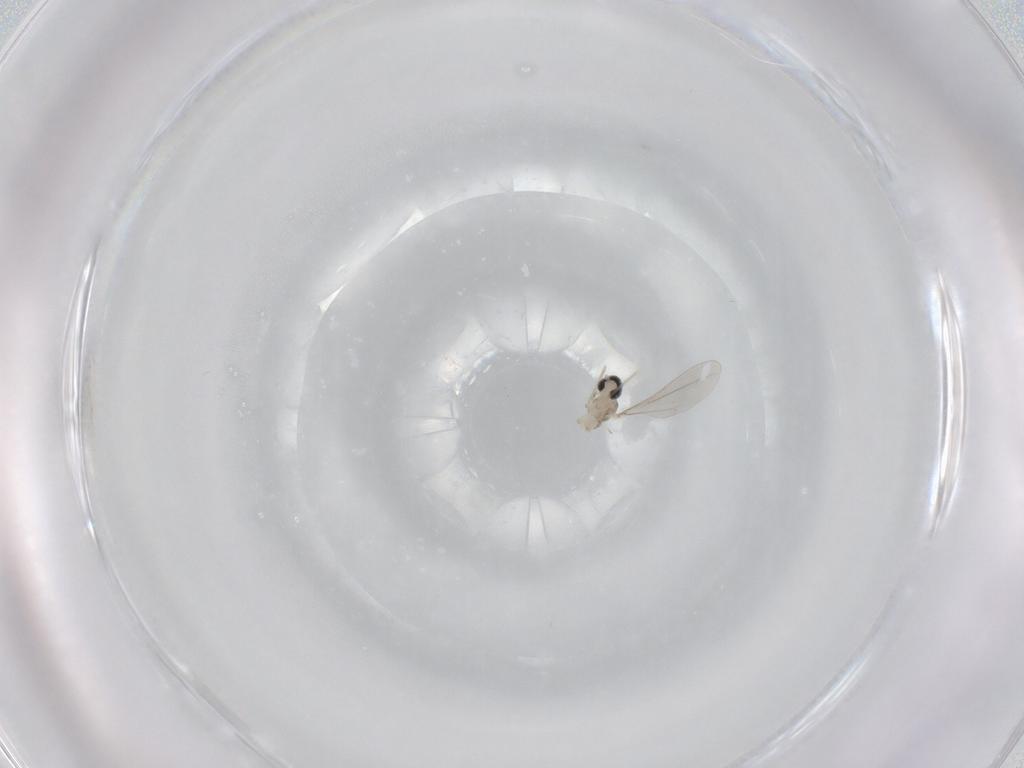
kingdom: Animalia
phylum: Arthropoda
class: Insecta
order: Diptera
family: Cecidomyiidae
